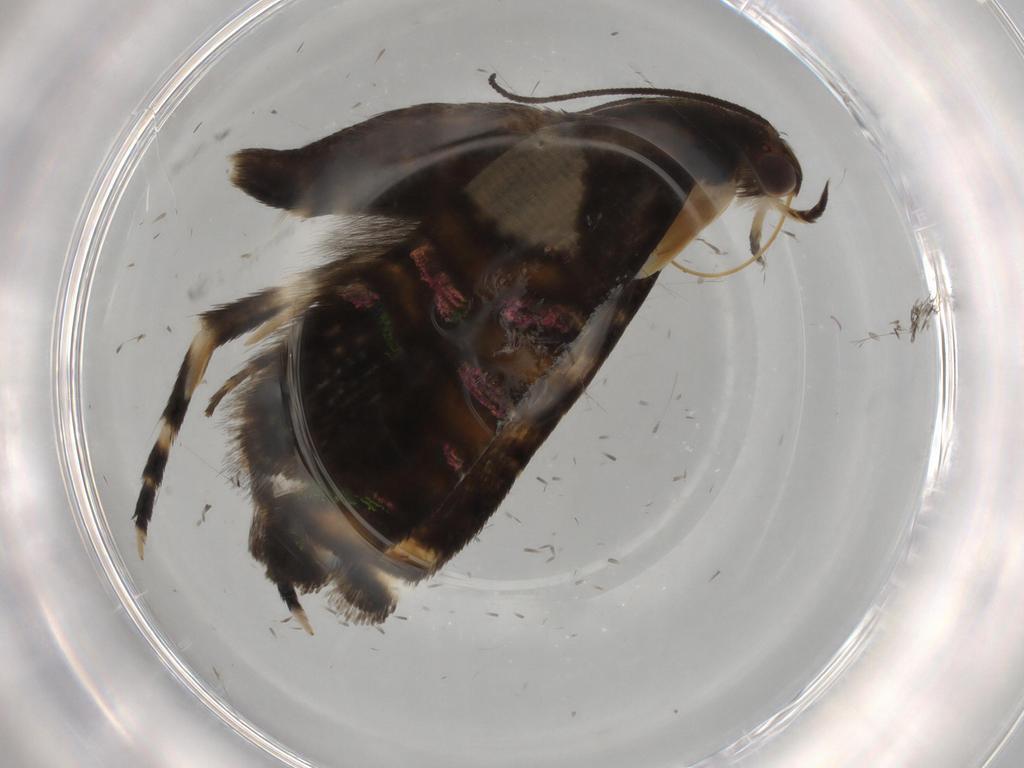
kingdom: Animalia
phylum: Arthropoda
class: Insecta
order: Lepidoptera
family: Glyphipterigidae
